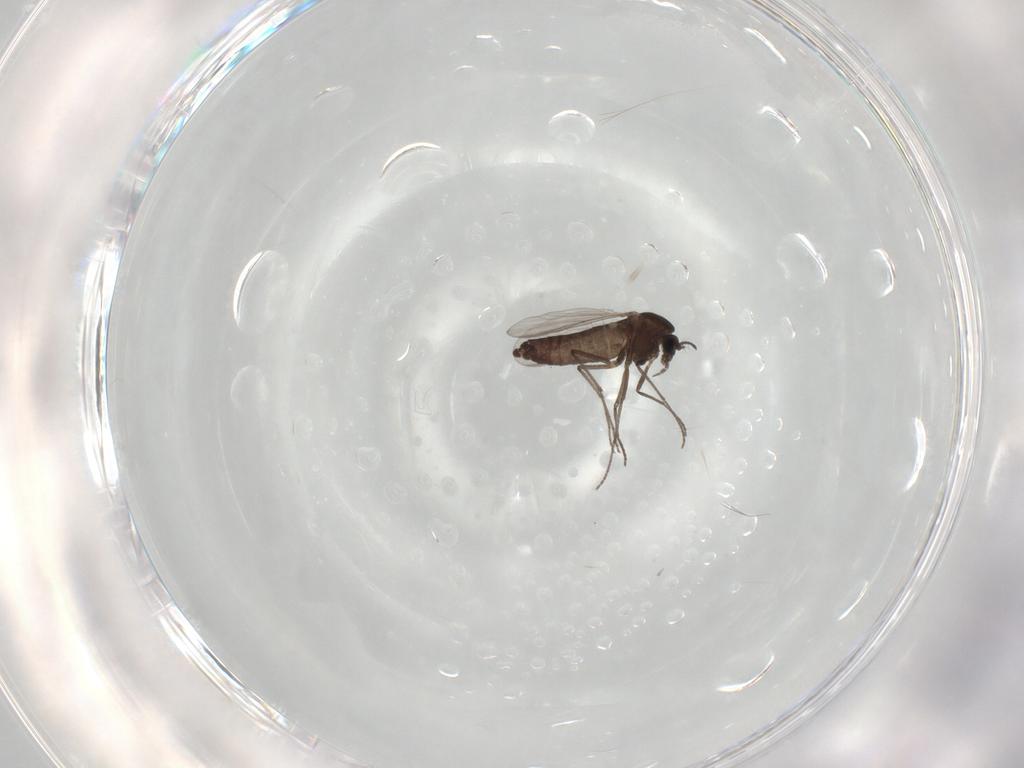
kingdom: Animalia
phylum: Arthropoda
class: Insecta
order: Diptera
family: Chironomidae
